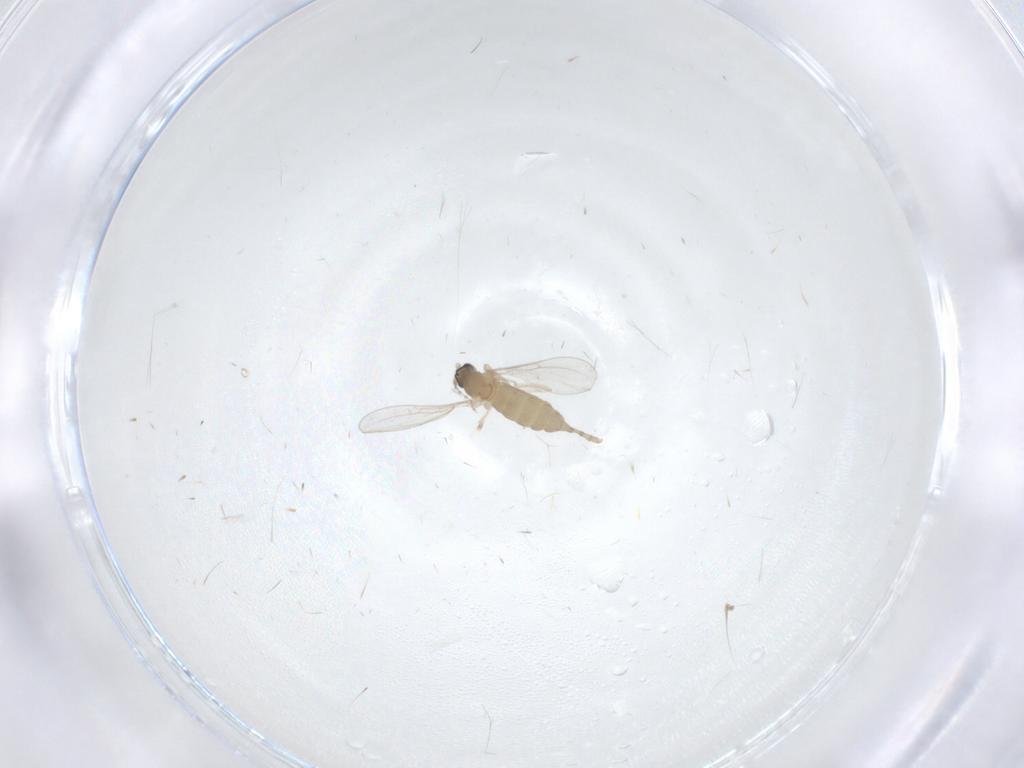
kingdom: Animalia
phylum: Arthropoda
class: Insecta
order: Diptera
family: Cecidomyiidae
